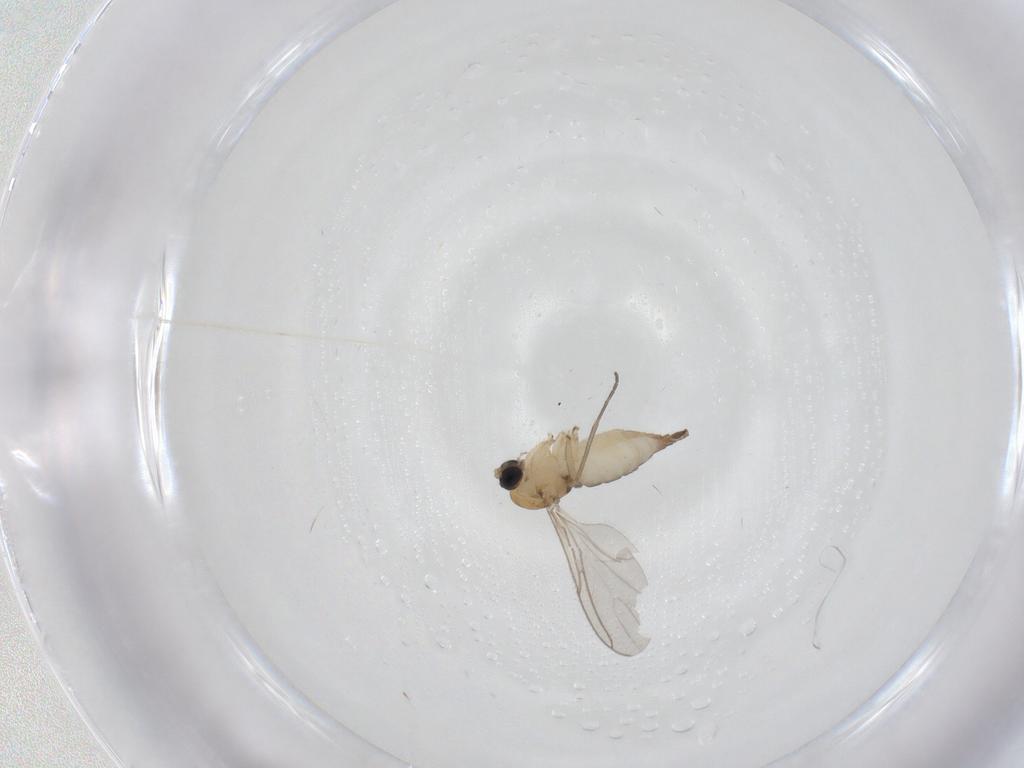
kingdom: Animalia
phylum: Arthropoda
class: Insecta
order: Diptera
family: Sciaridae
